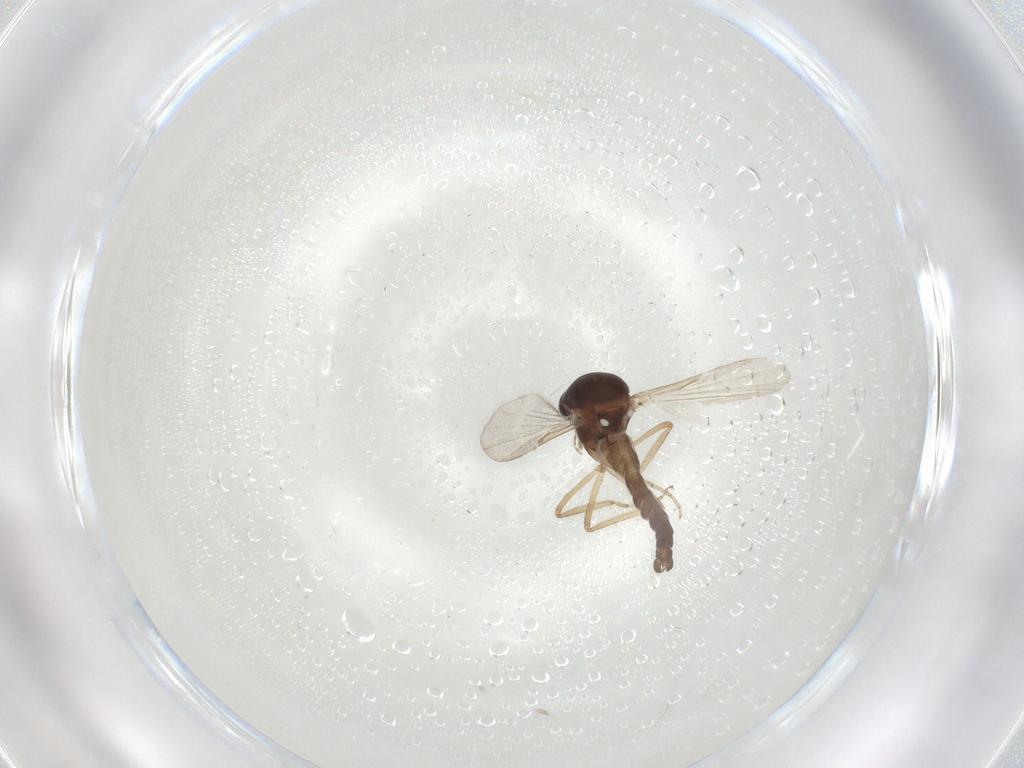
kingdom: Animalia
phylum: Arthropoda
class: Insecta
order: Diptera
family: Ceratopogonidae
